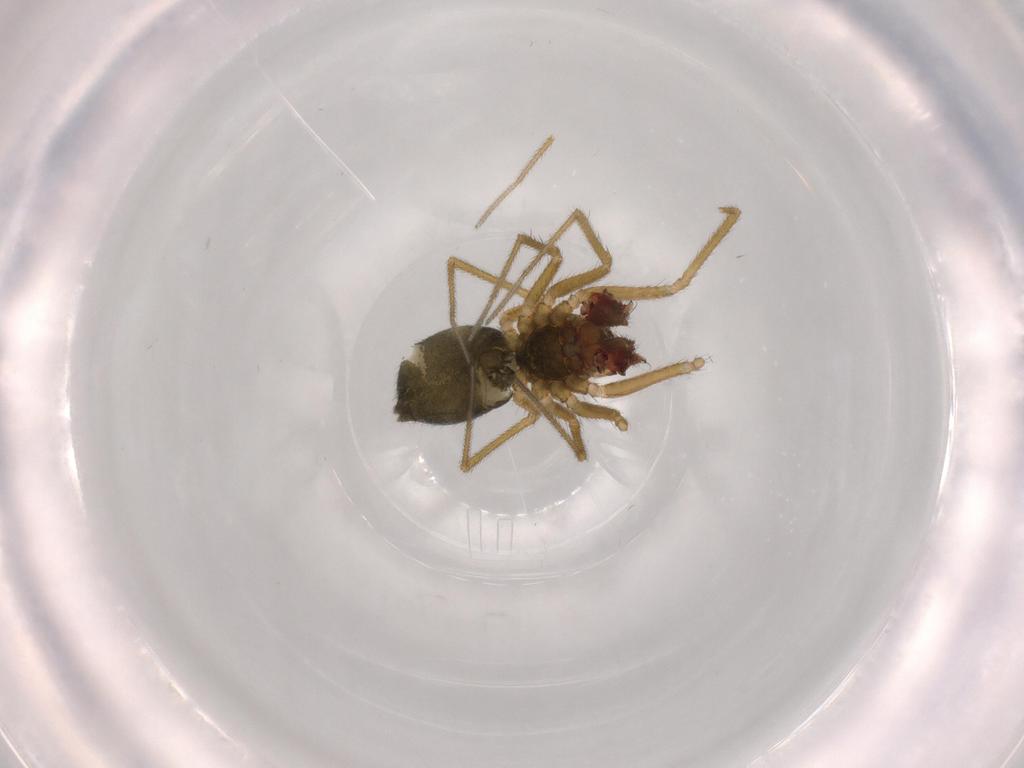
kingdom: Animalia
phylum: Arthropoda
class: Arachnida
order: Araneae
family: Linyphiidae
